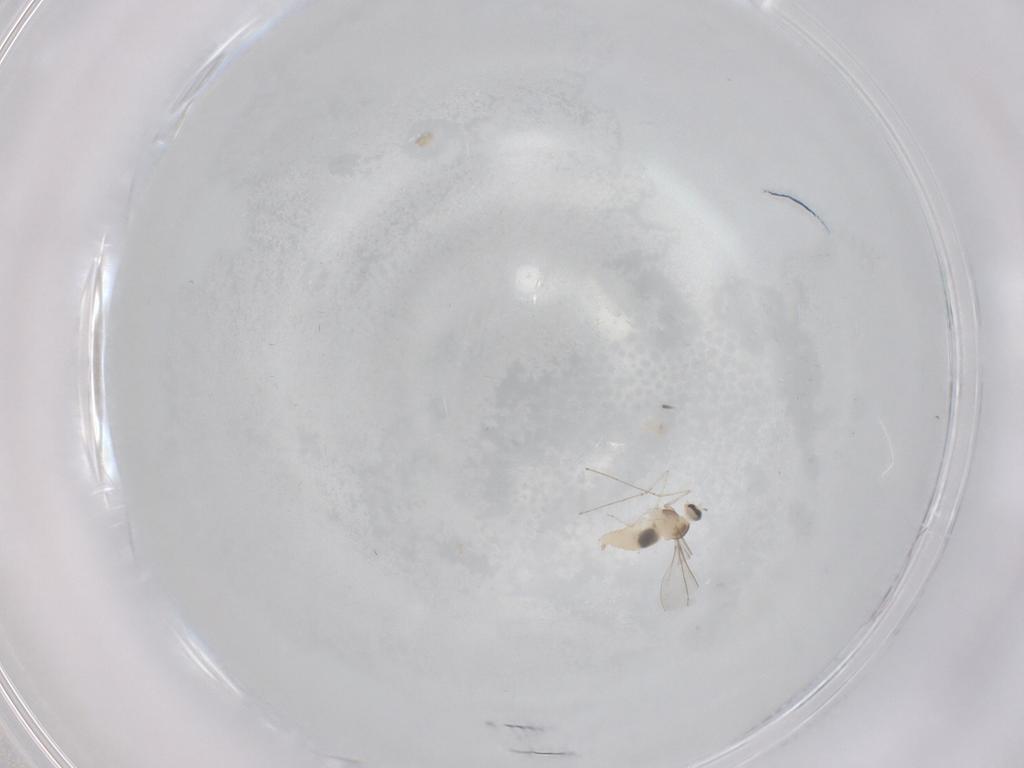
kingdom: Animalia
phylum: Arthropoda
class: Insecta
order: Diptera
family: Cecidomyiidae
